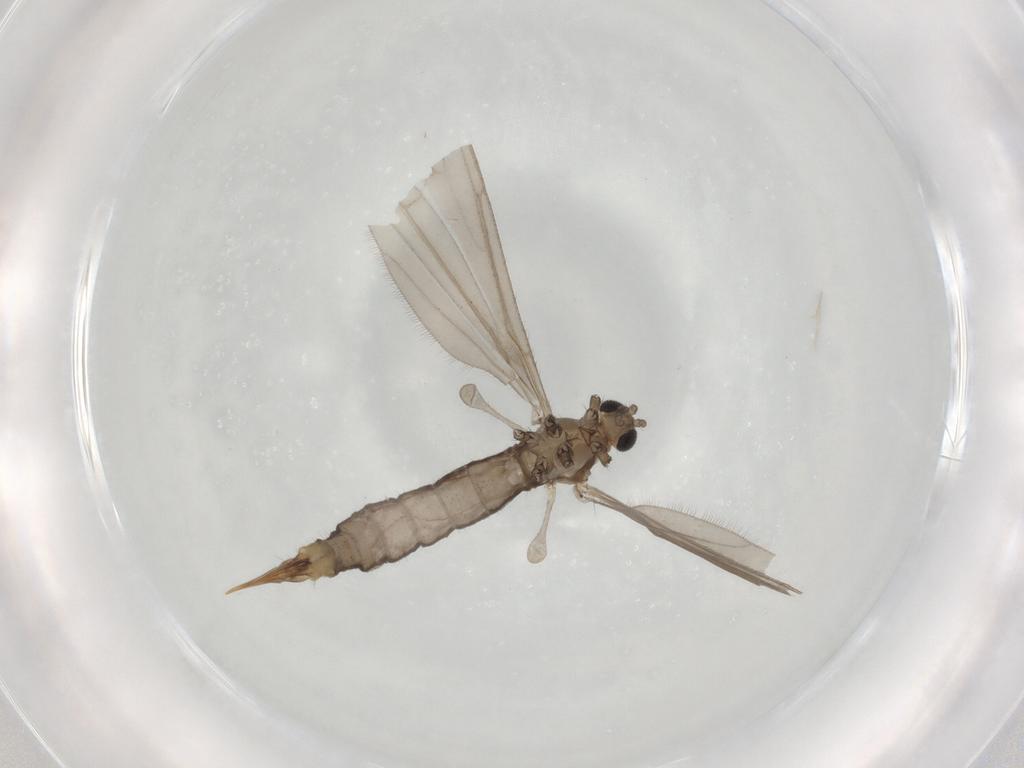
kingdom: Animalia
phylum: Arthropoda
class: Insecta
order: Diptera
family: Limoniidae
